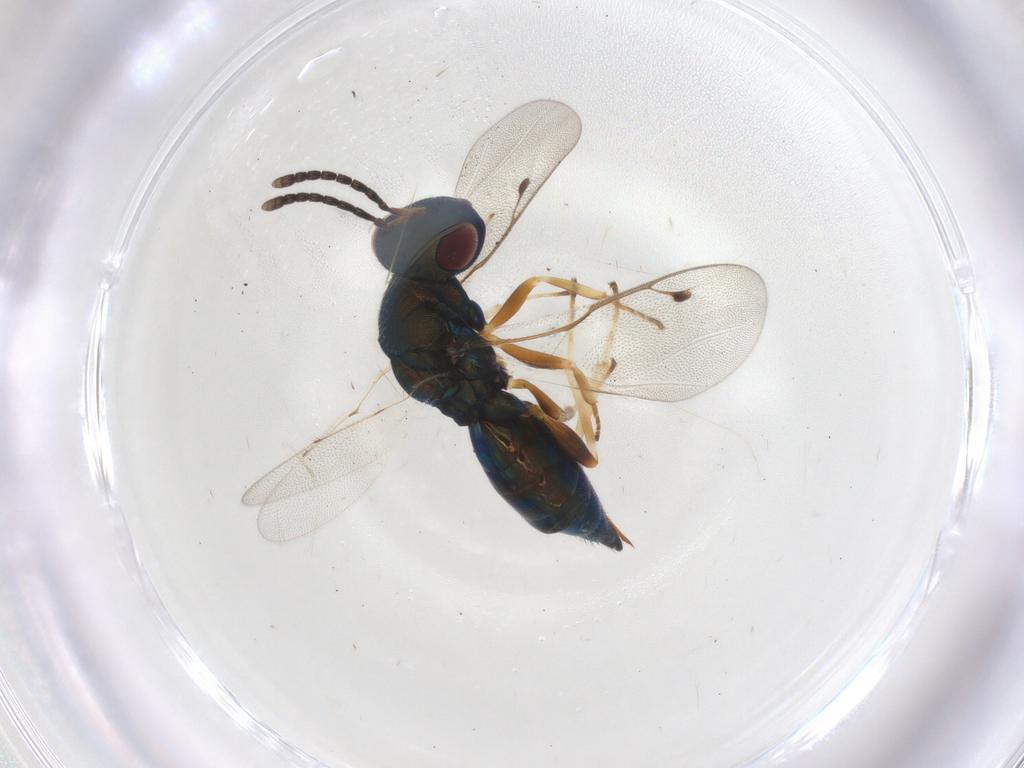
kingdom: Animalia
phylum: Arthropoda
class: Insecta
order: Hymenoptera
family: Pteromalidae
